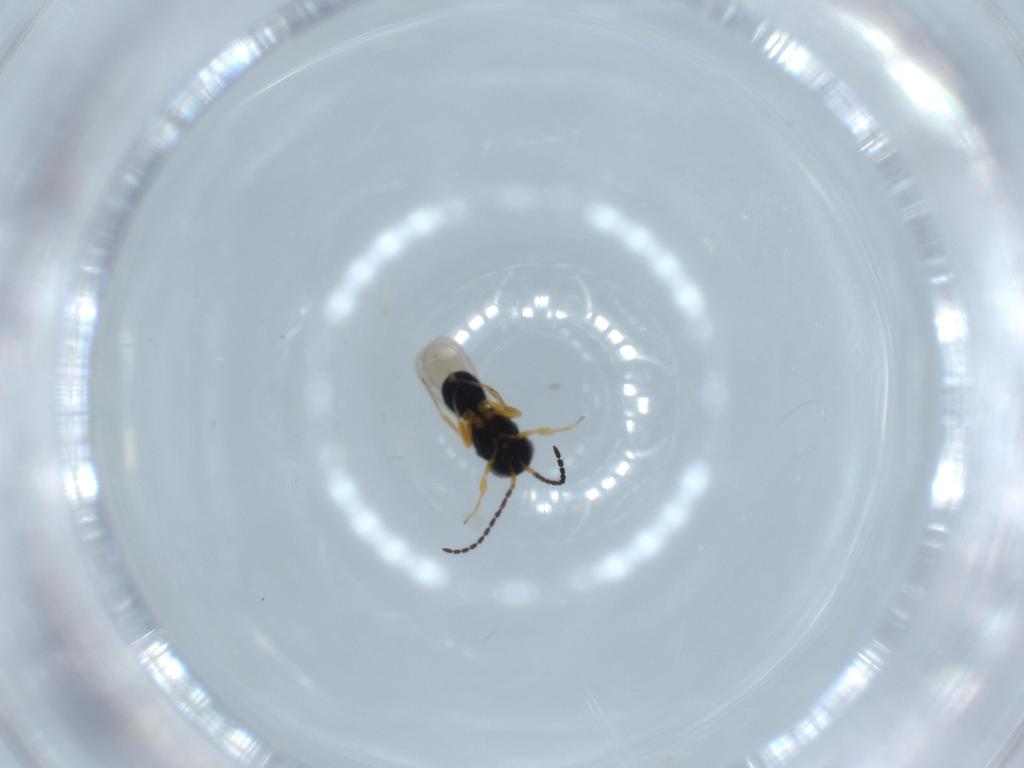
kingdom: Animalia
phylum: Arthropoda
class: Insecta
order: Hymenoptera
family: Scelionidae
